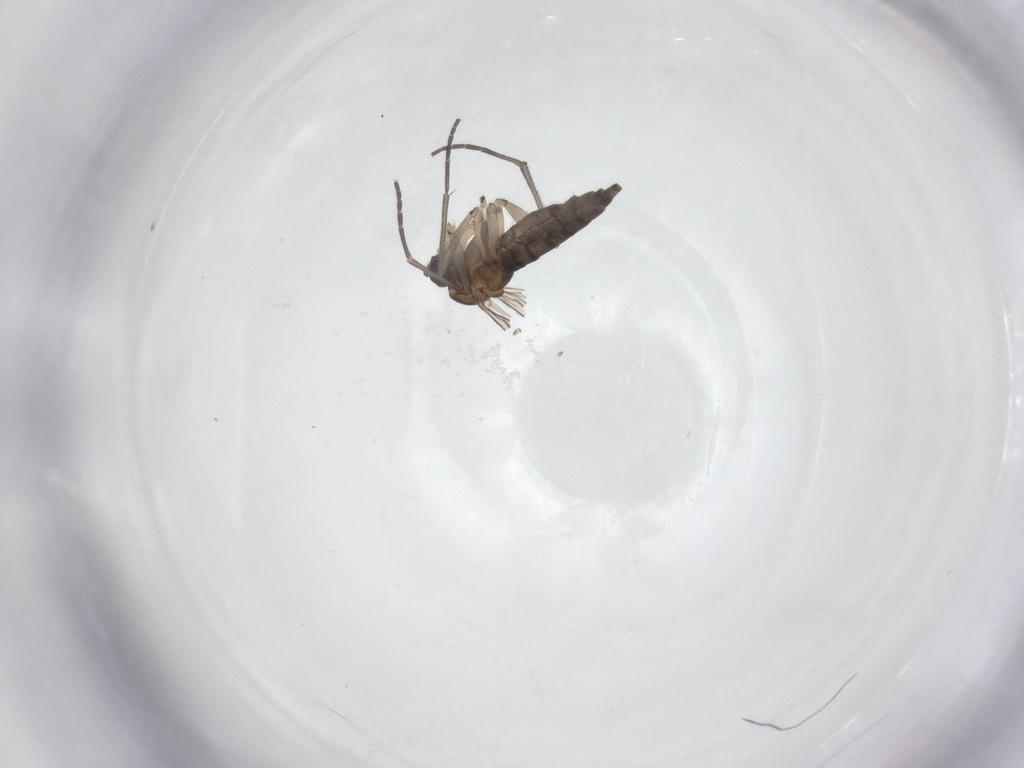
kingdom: Animalia
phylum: Arthropoda
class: Insecta
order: Diptera
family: Sciaridae
